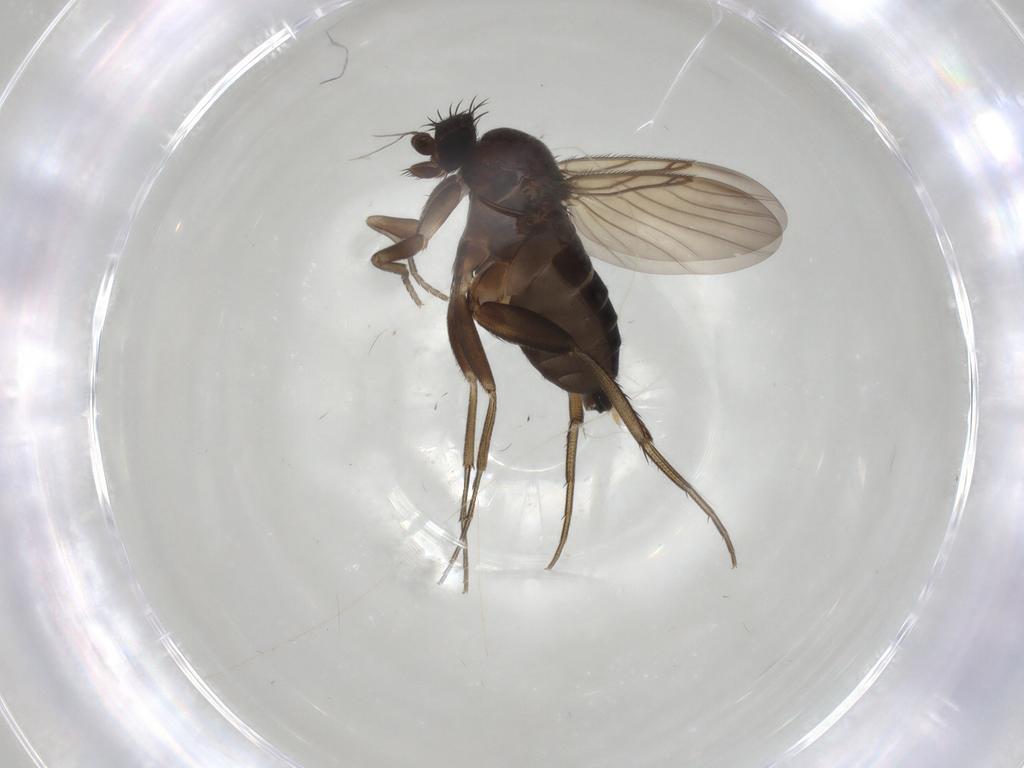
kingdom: Animalia
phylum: Arthropoda
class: Insecta
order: Diptera
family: Phoridae
